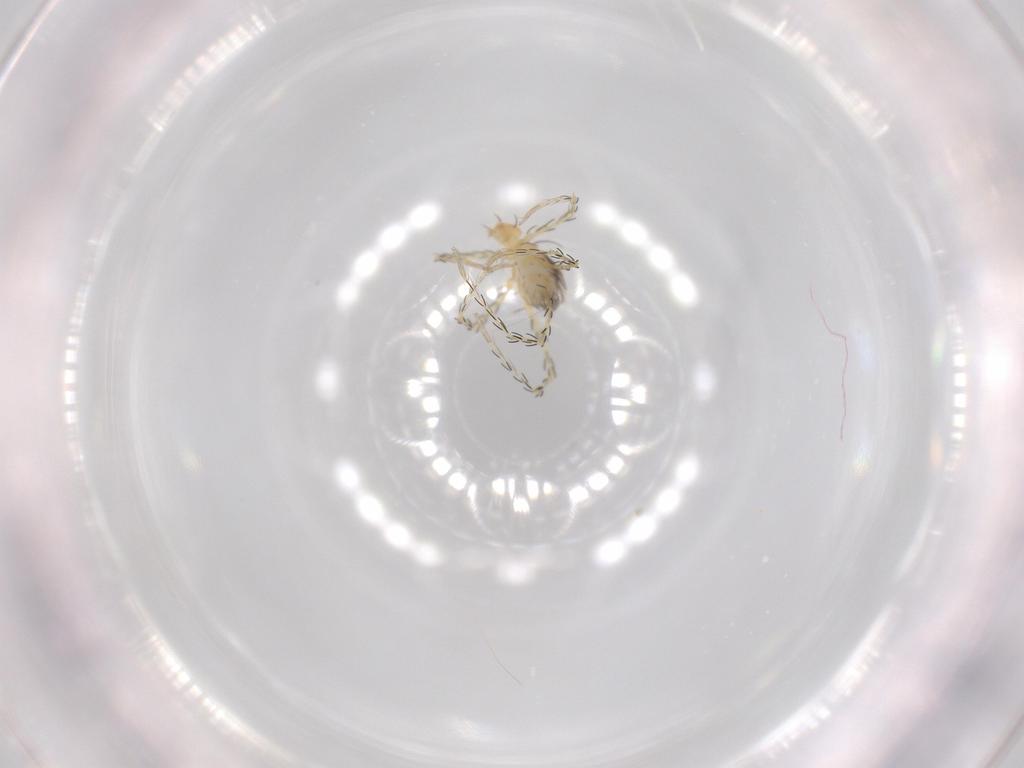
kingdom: Animalia
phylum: Arthropoda
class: Arachnida
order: Trombidiformes
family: Erythraeidae
